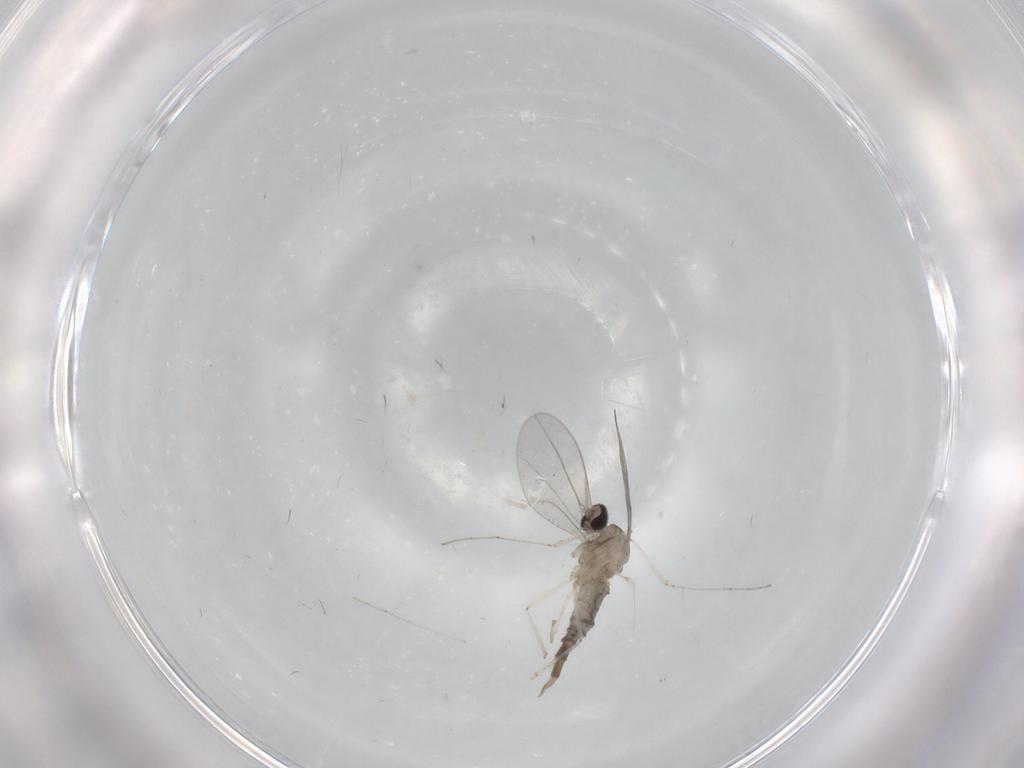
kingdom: Animalia
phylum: Arthropoda
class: Insecta
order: Diptera
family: Cecidomyiidae
